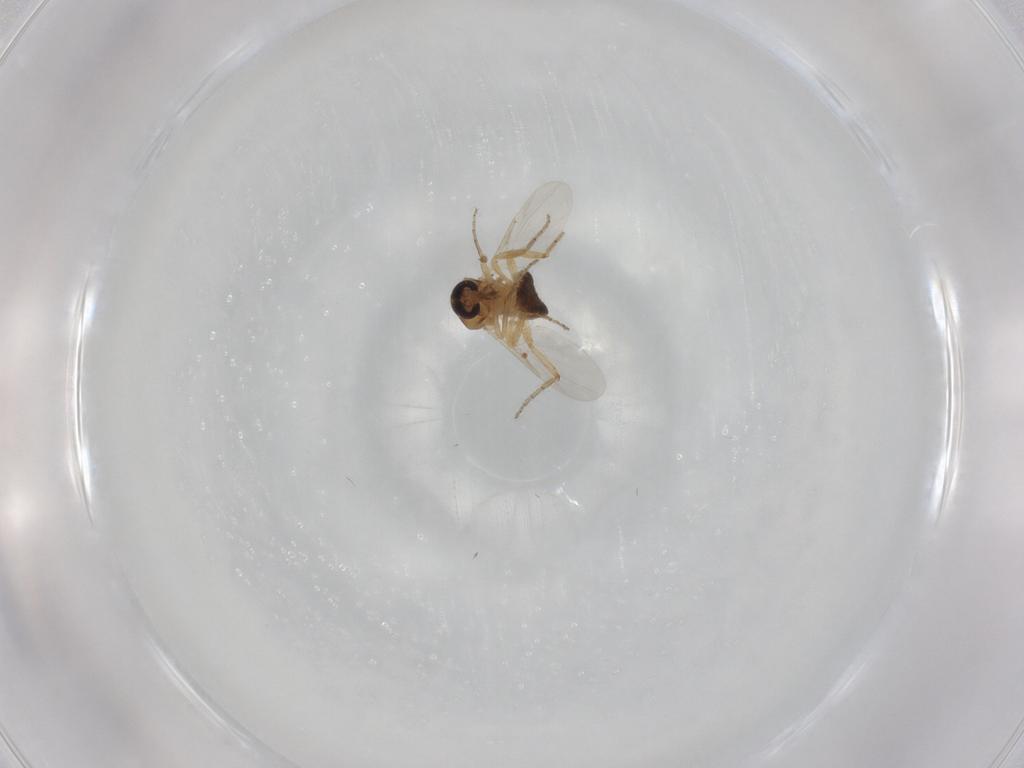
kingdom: Animalia
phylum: Arthropoda
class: Insecta
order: Diptera
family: Ceratopogonidae
